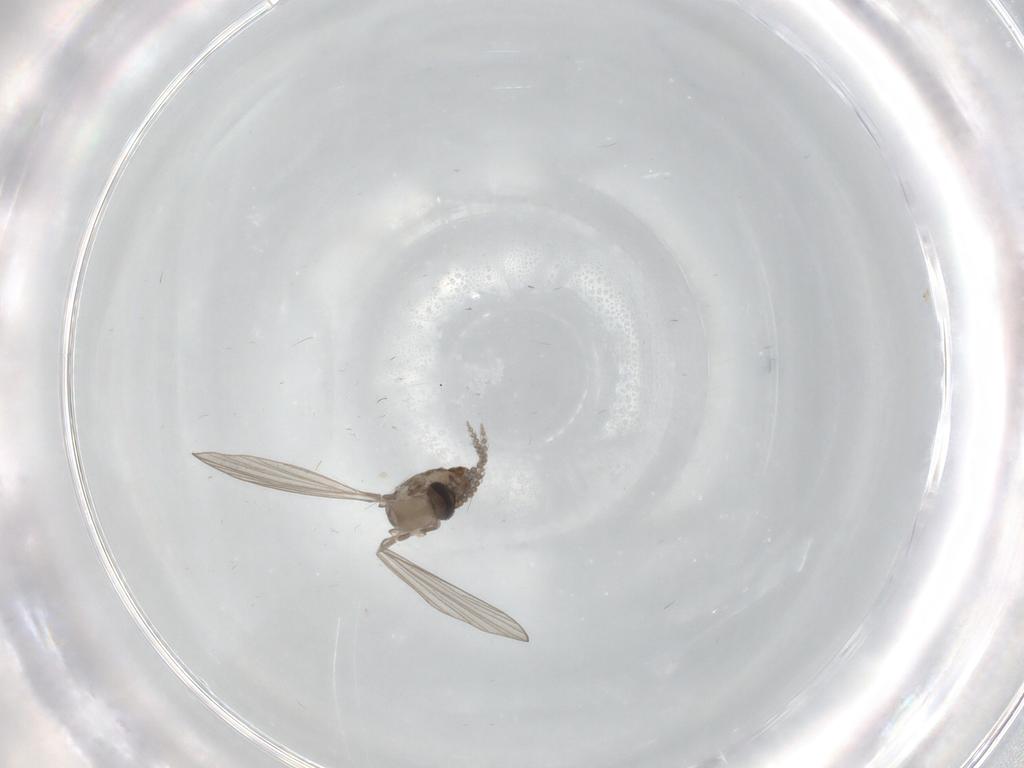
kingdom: Animalia
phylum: Arthropoda
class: Insecta
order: Diptera
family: Psychodidae
